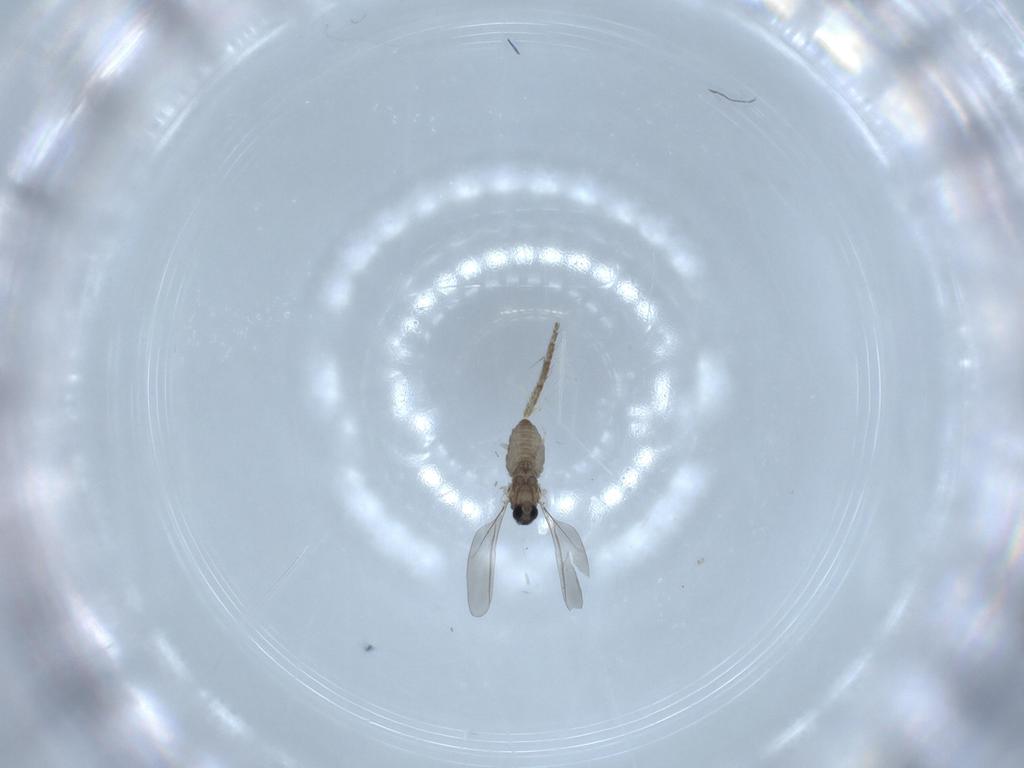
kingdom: Animalia
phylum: Arthropoda
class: Insecta
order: Diptera
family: Cecidomyiidae
